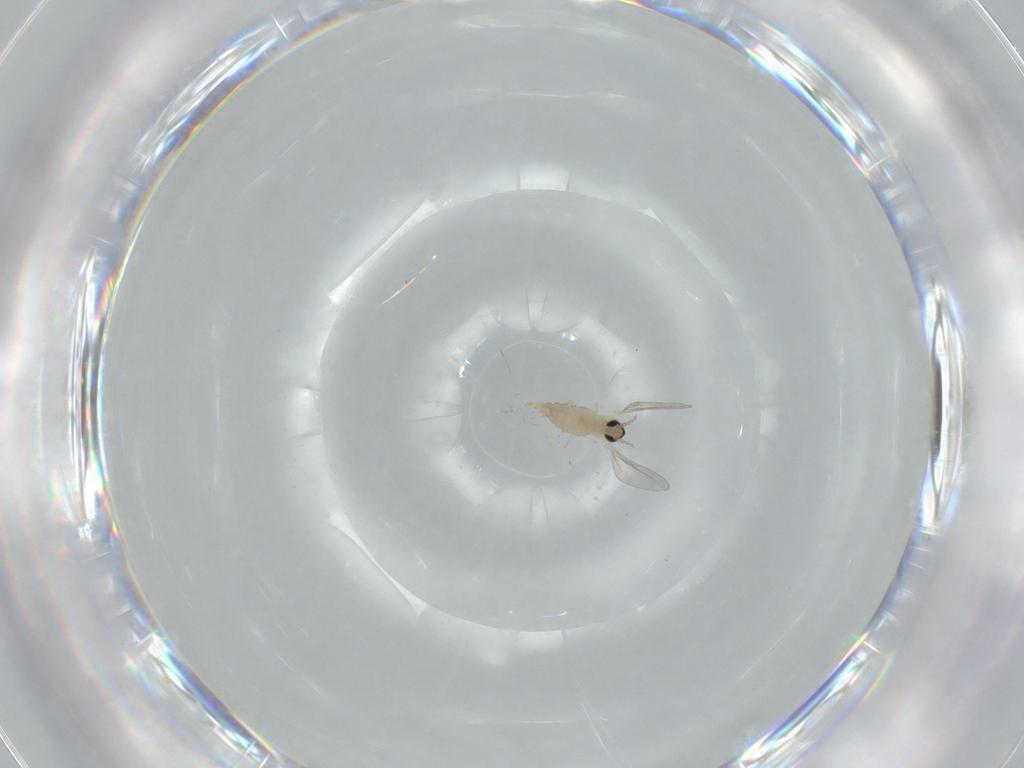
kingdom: Animalia
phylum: Arthropoda
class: Insecta
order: Diptera
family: Cecidomyiidae
